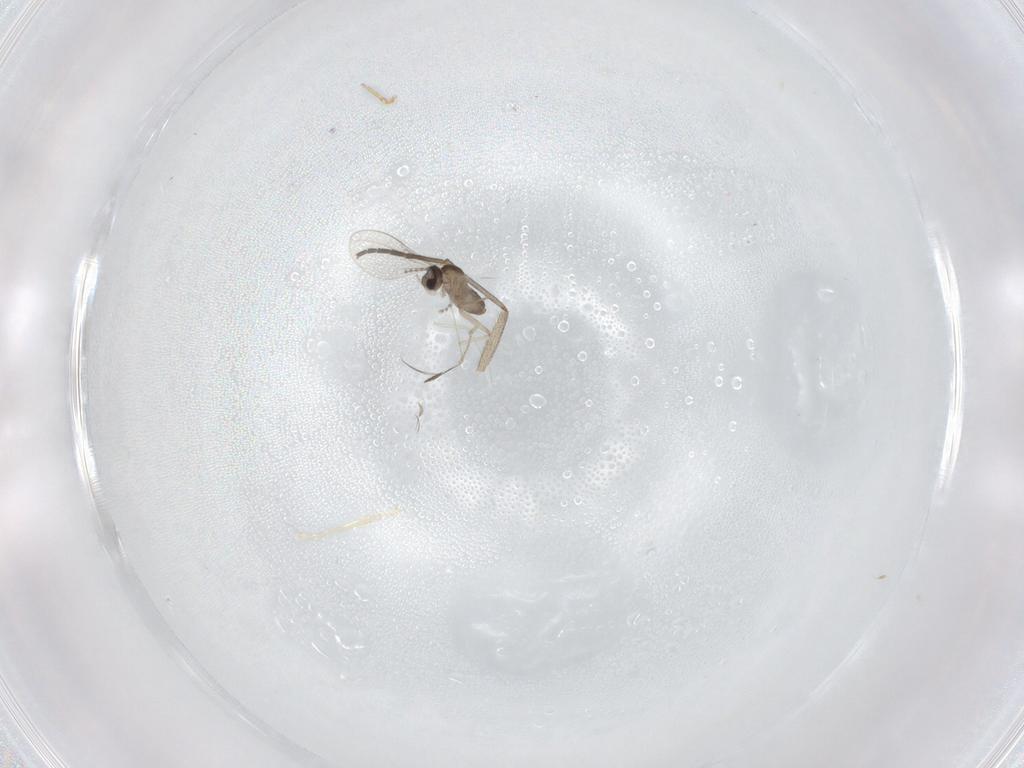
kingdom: Animalia
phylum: Arthropoda
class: Insecta
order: Diptera
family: Cecidomyiidae
